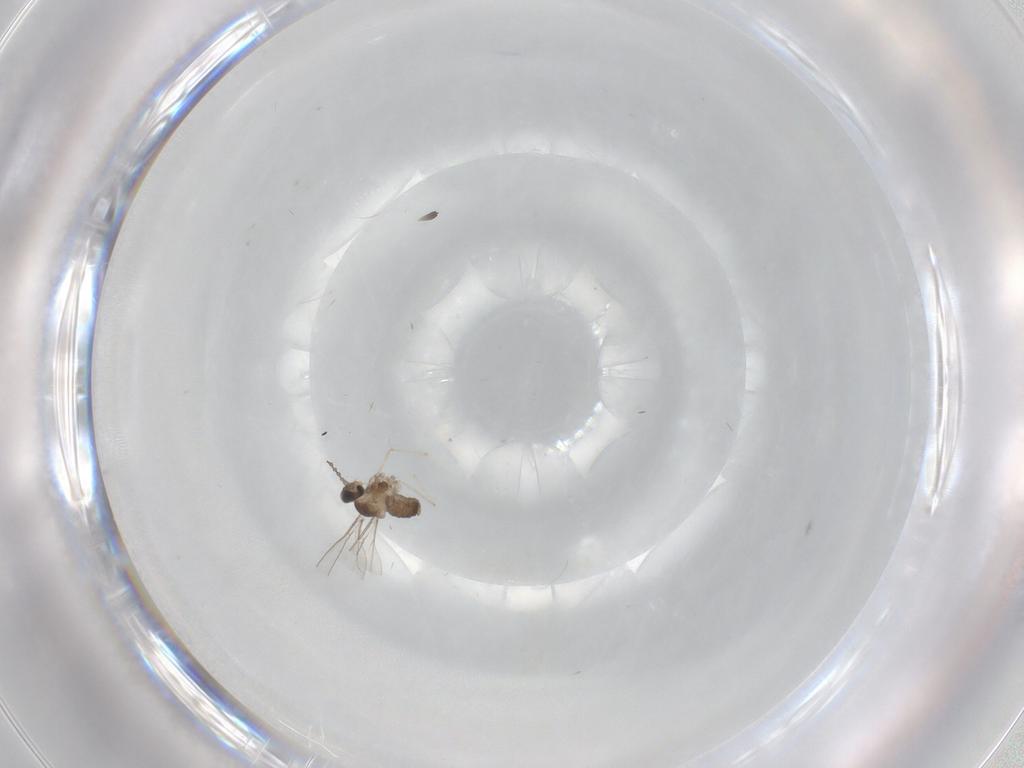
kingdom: Animalia
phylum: Arthropoda
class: Insecta
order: Diptera
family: Cecidomyiidae
